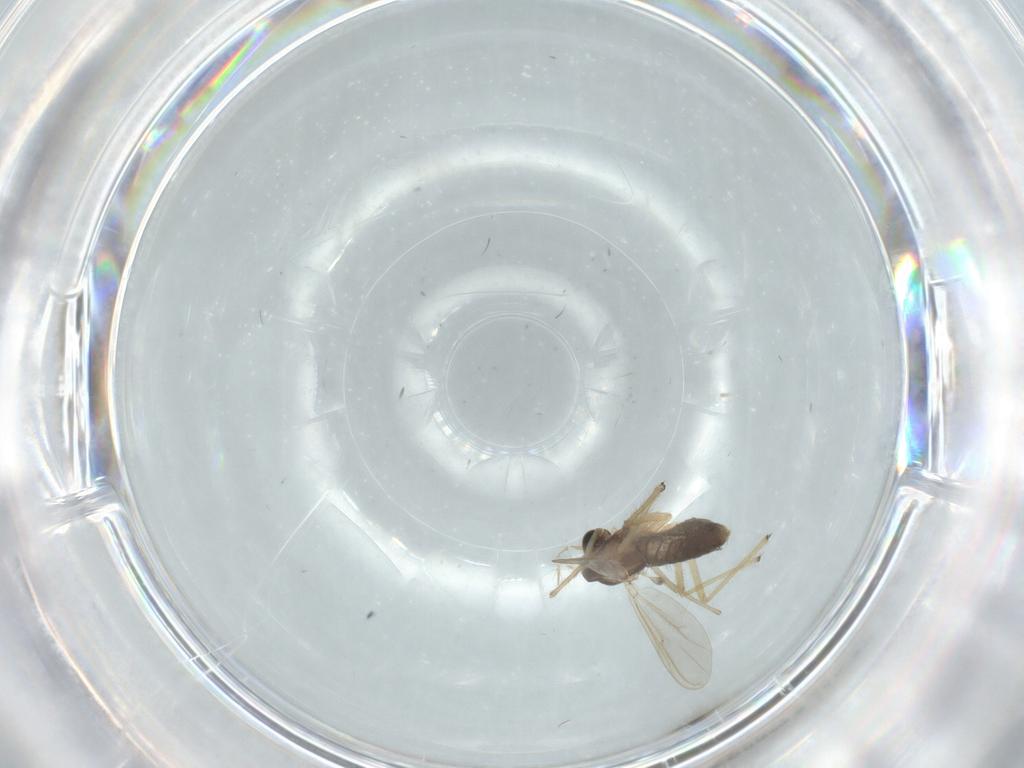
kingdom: Animalia
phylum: Arthropoda
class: Insecta
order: Diptera
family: Chironomidae
